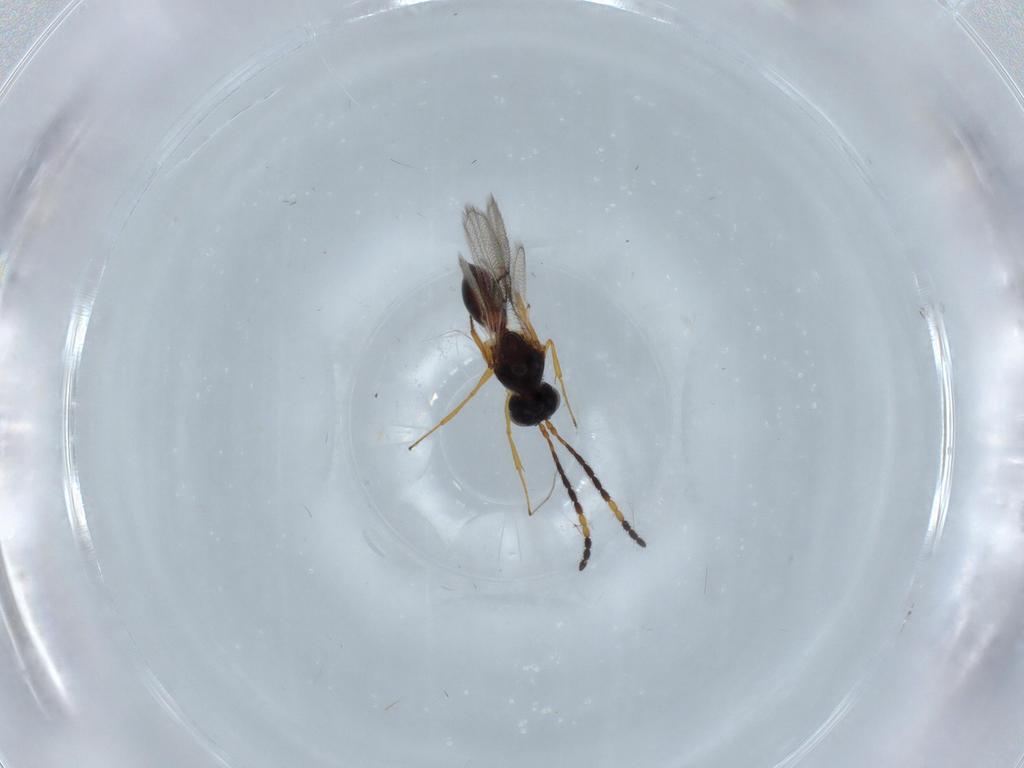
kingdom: Animalia
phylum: Arthropoda
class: Insecta
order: Hymenoptera
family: Figitidae
